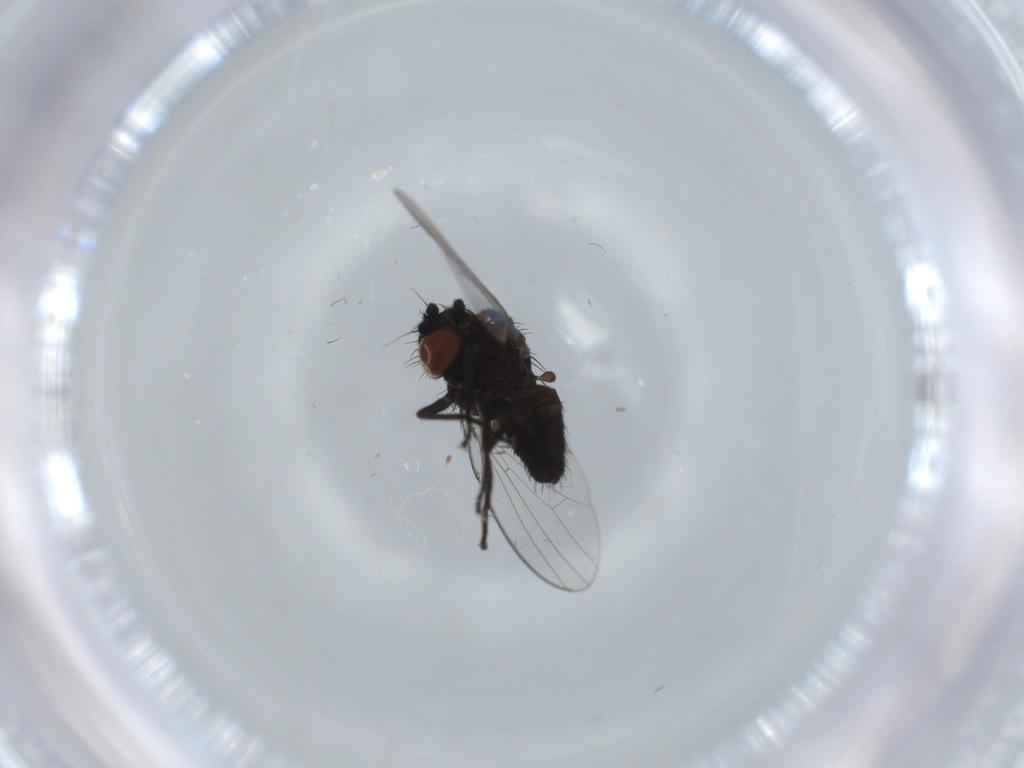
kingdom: Animalia
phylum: Arthropoda
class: Insecta
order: Diptera
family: Milichiidae
